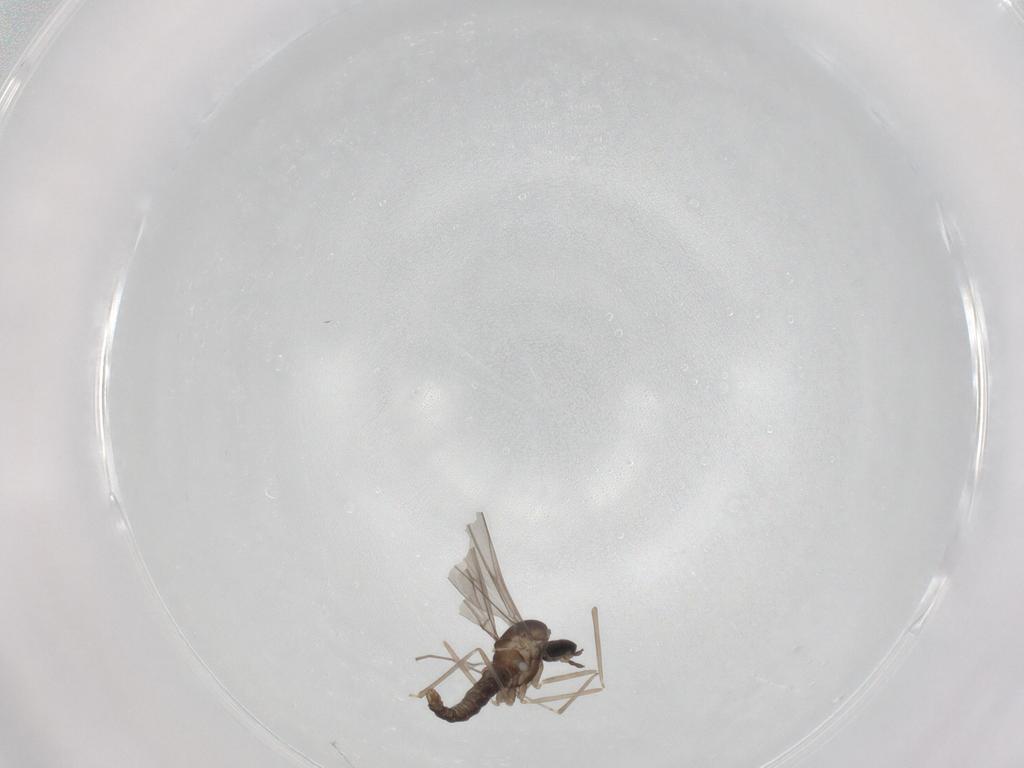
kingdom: Animalia
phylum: Arthropoda
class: Insecta
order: Diptera
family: Cecidomyiidae
